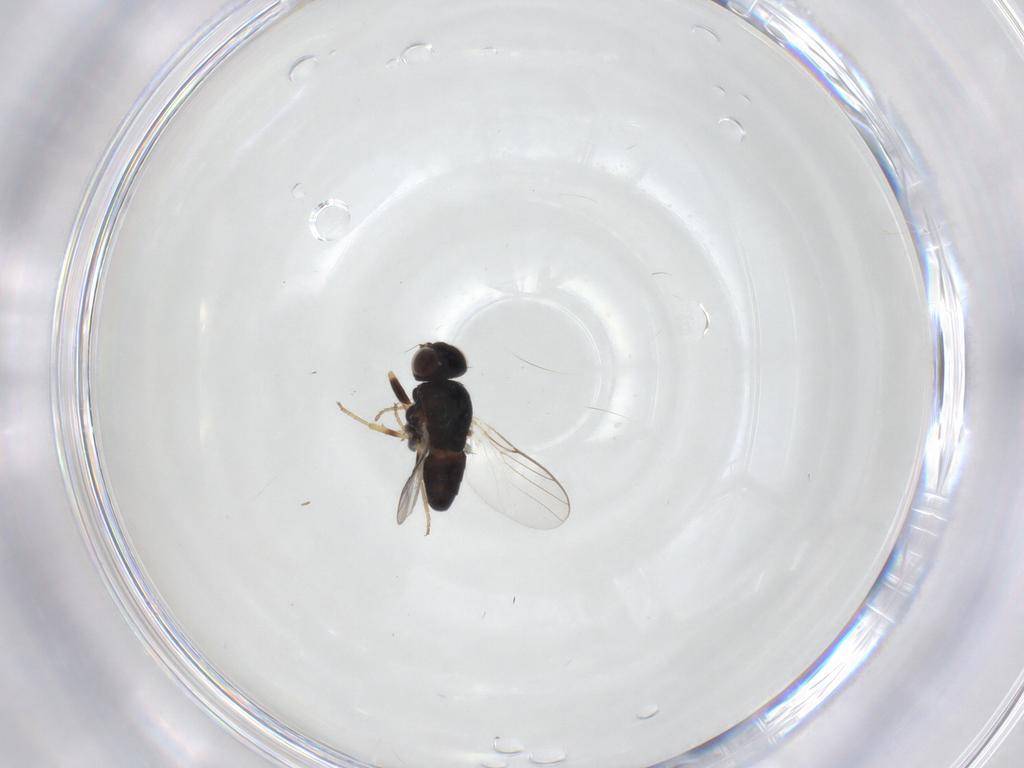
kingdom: Animalia
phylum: Arthropoda
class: Insecta
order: Diptera
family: Chloropidae
